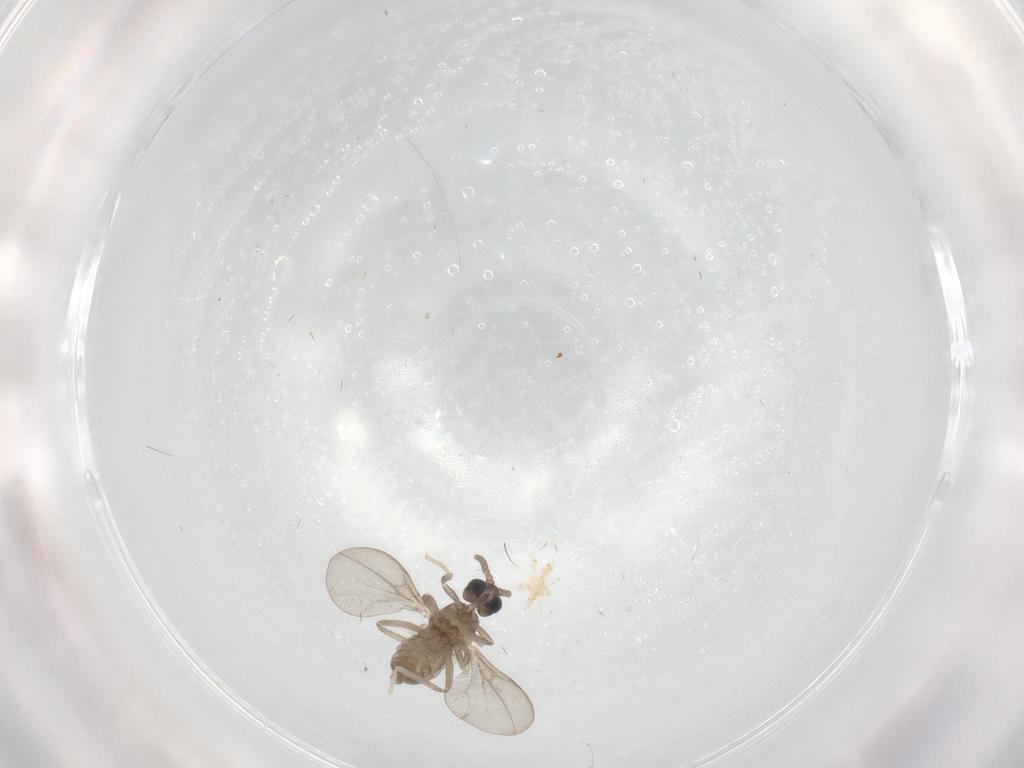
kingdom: Animalia
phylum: Arthropoda
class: Insecta
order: Diptera
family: Cecidomyiidae
